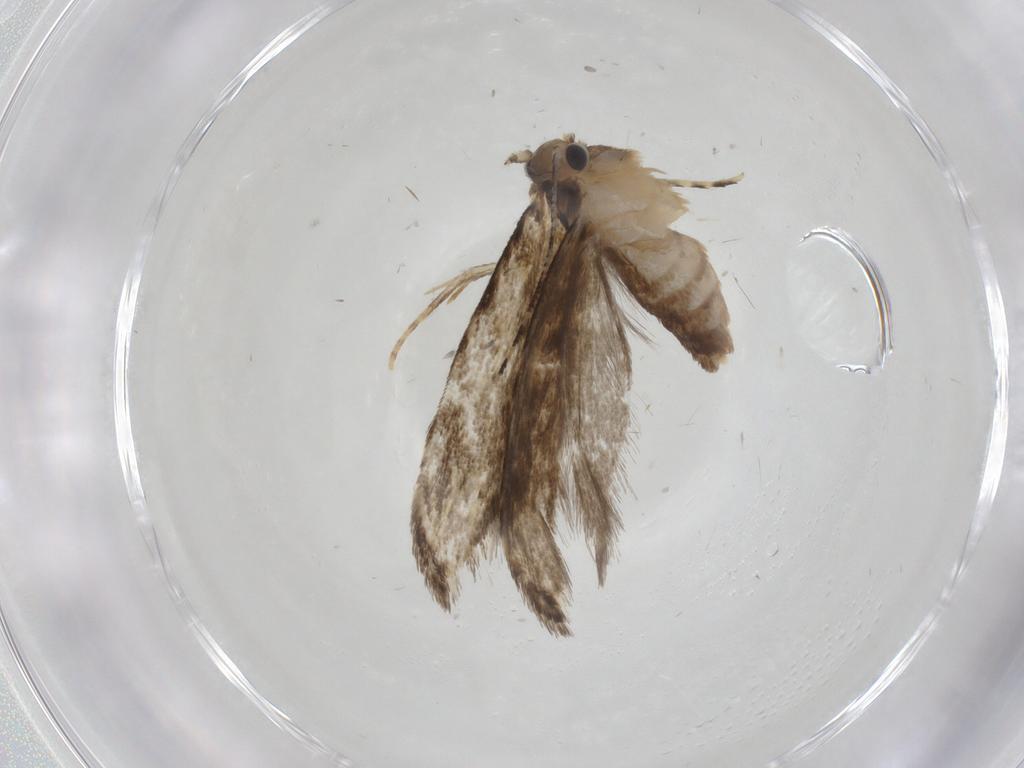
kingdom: Animalia
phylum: Arthropoda
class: Insecta
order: Lepidoptera
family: Tineidae
